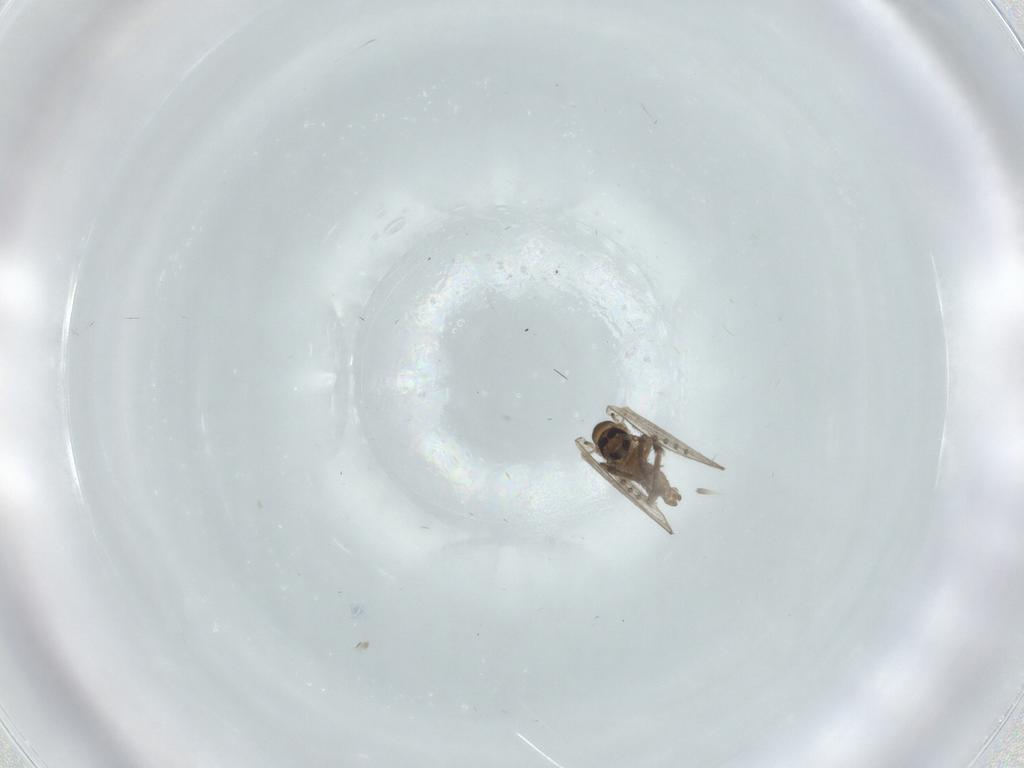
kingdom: Animalia
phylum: Arthropoda
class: Insecta
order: Diptera
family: Psychodidae
